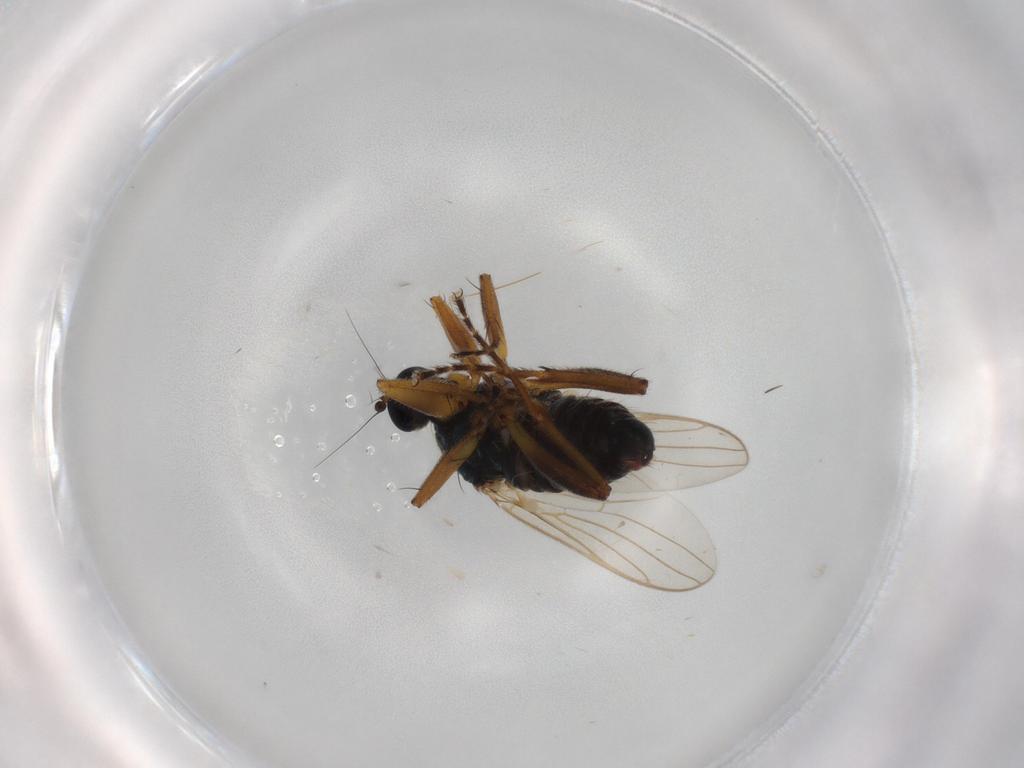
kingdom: Animalia
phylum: Arthropoda
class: Insecta
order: Diptera
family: Hybotidae
